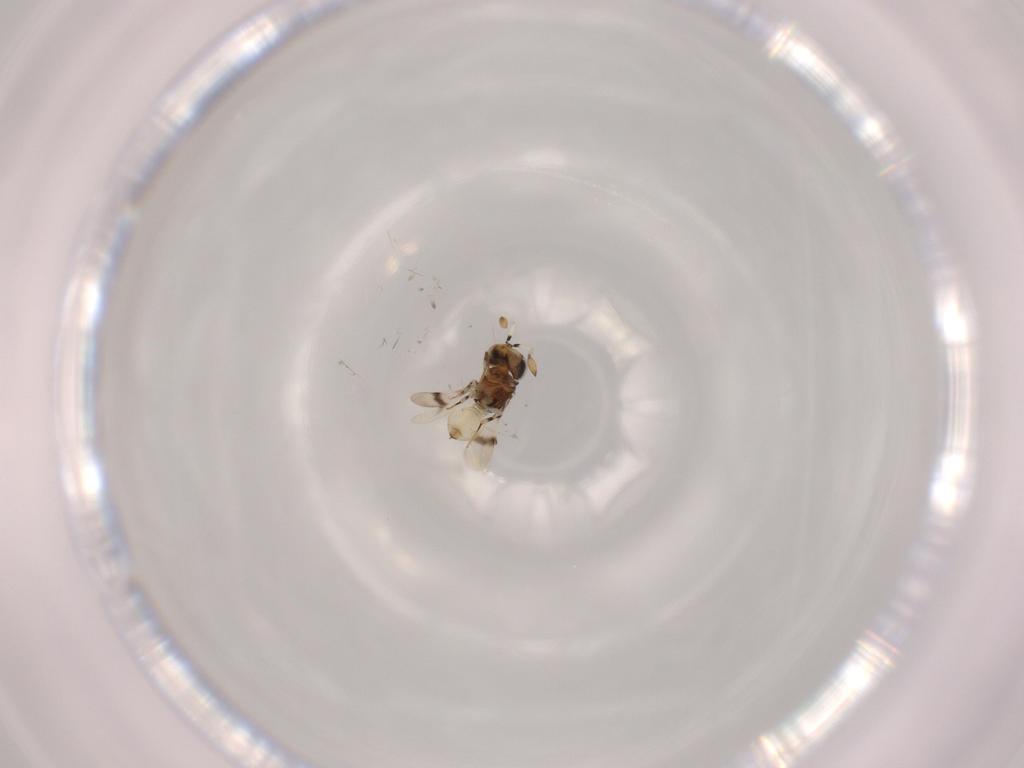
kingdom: Animalia
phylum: Arthropoda
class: Insecta
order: Hymenoptera
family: Scelionidae
